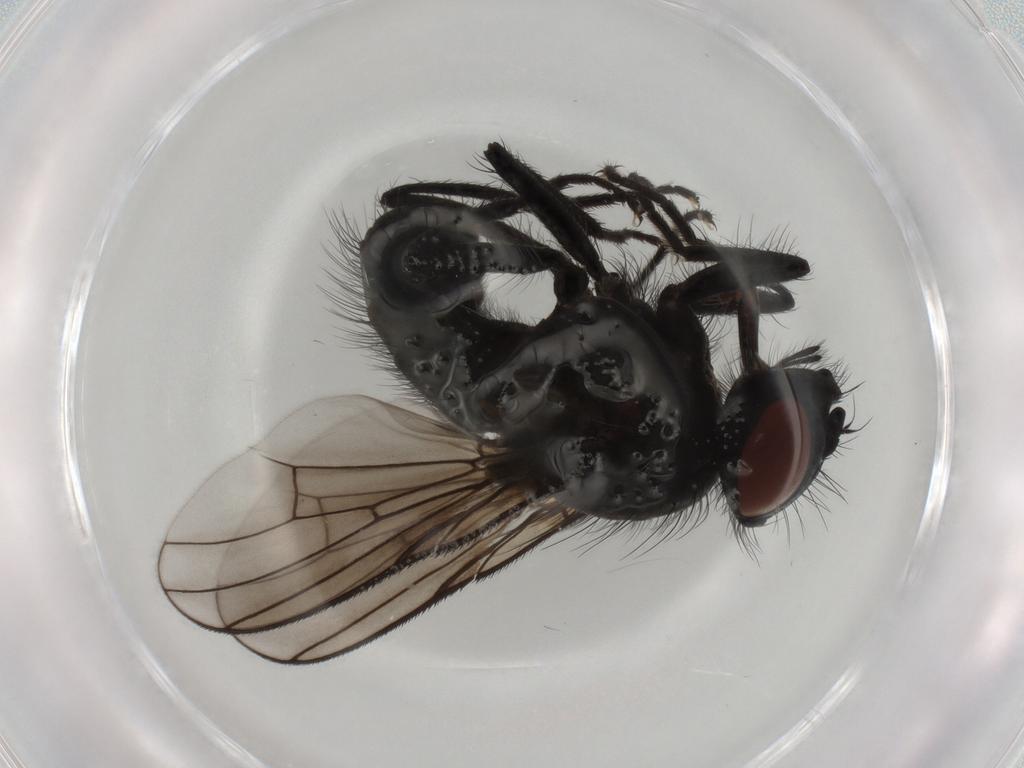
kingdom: Animalia
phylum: Arthropoda
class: Insecta
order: Diptera
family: Muscidae
